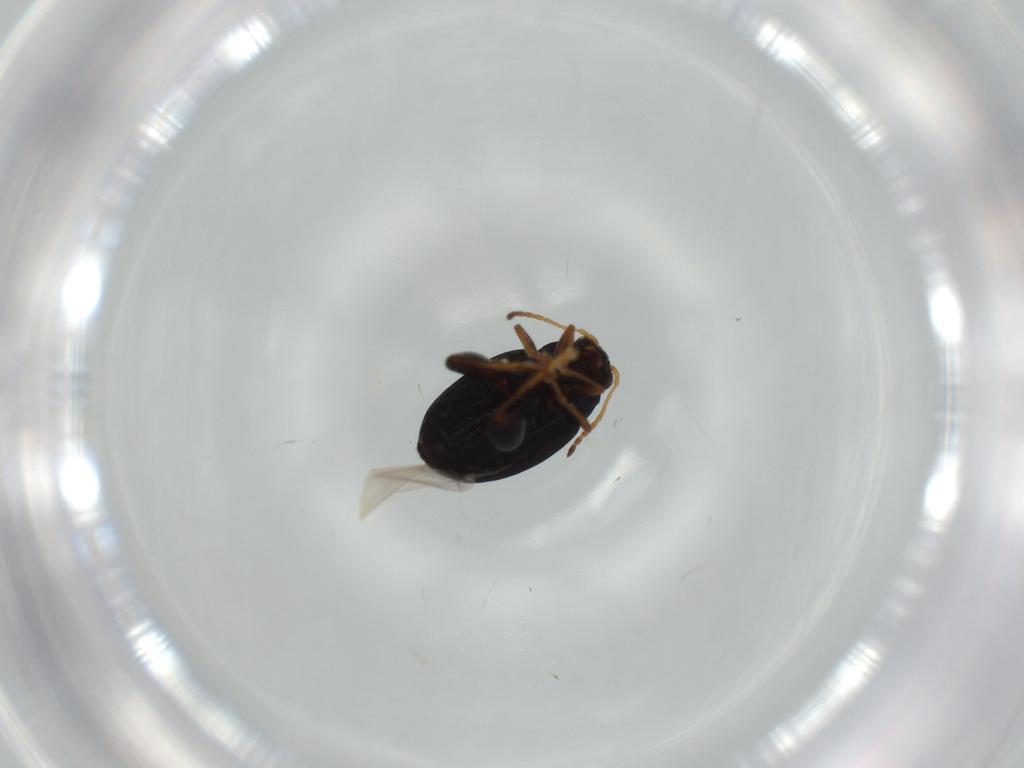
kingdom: Animalia
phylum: Arthropoda
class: Insecta
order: Coleoptera
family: Chrysomelidae
